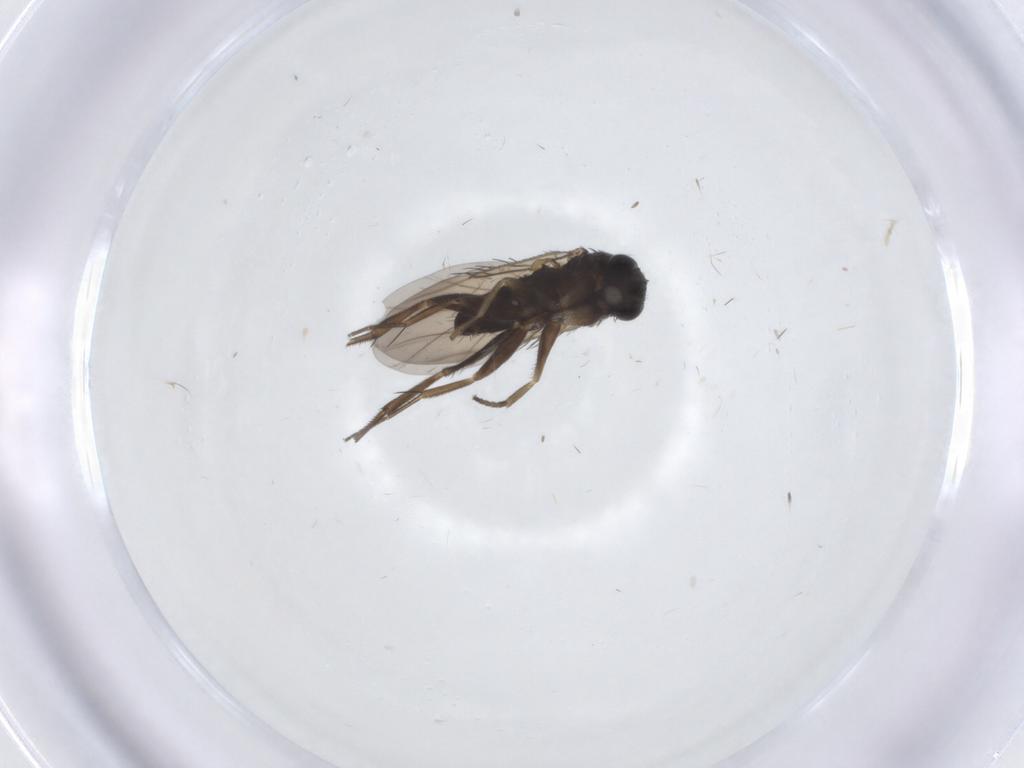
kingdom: Animalia
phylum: Arthropoda
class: Insecta
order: Diptera
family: Phoridae
